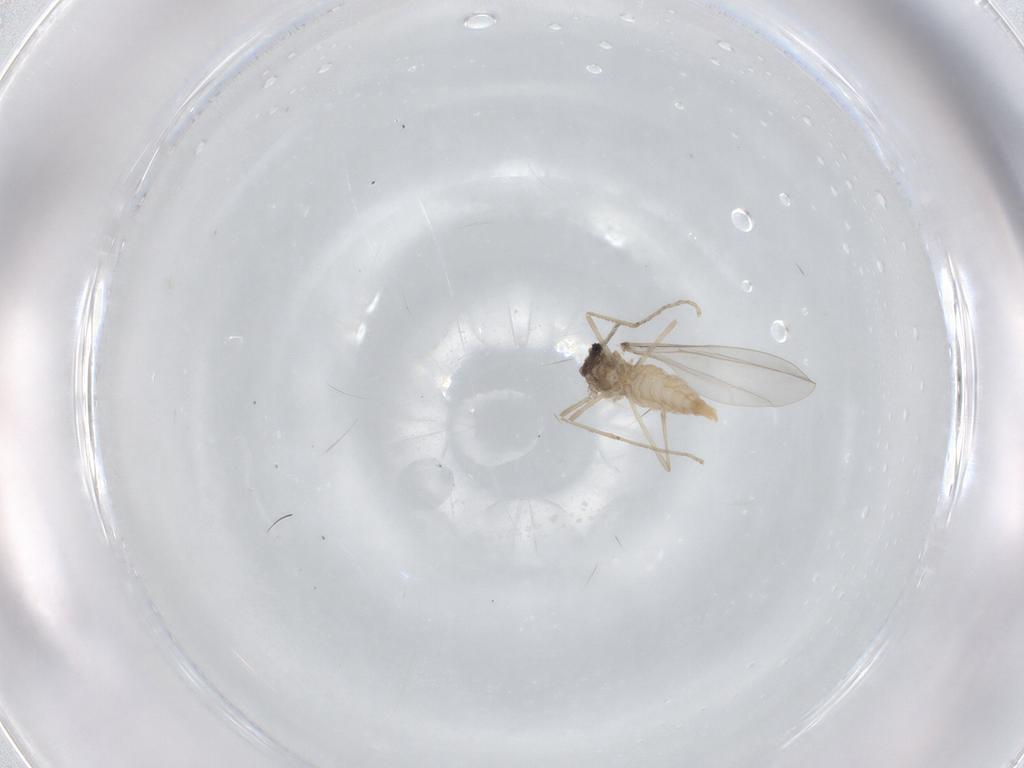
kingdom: Animalia
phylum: Arthropoda
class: Insecta
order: Diptera
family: Cecidomyiidae
